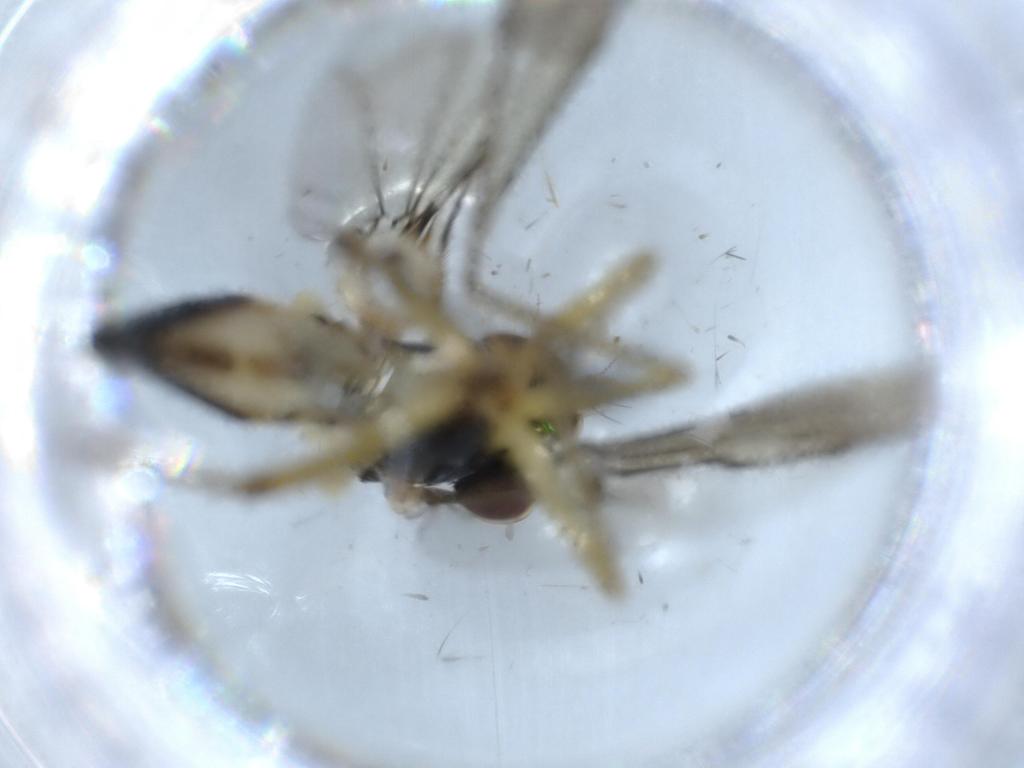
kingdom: Animalia
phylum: Arthropoda
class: Insecta
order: Diptera
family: Dolichopodidae
